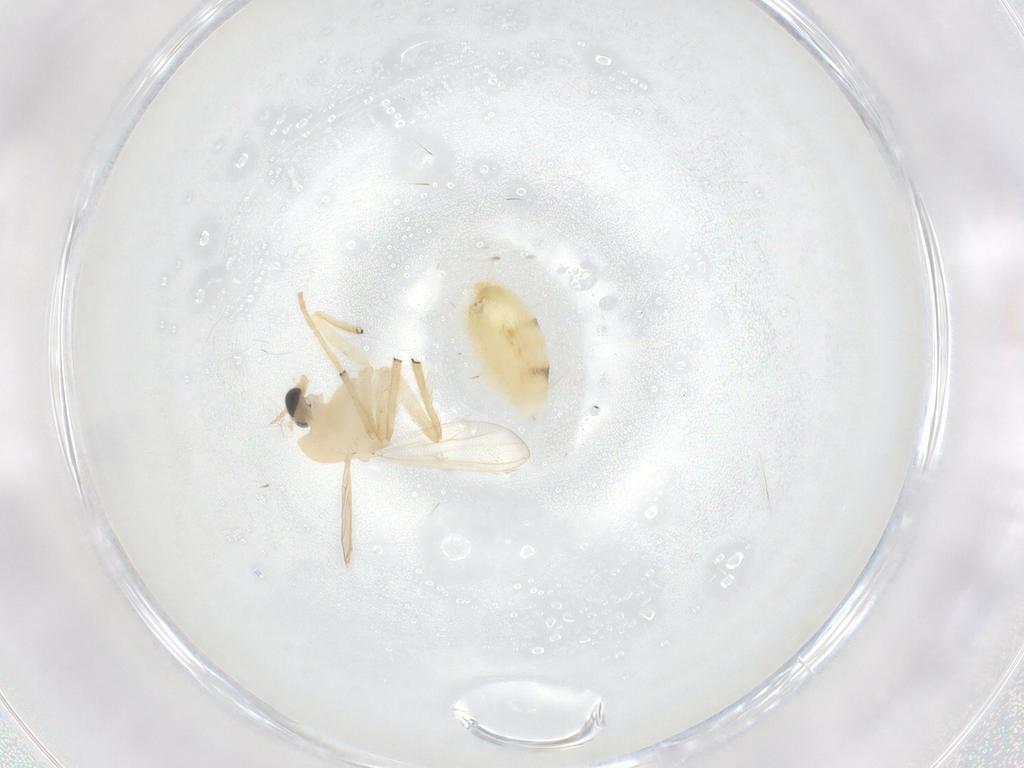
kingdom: Animalia
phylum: Arthropoda
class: Insecta
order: Diptera
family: Chironomidae
